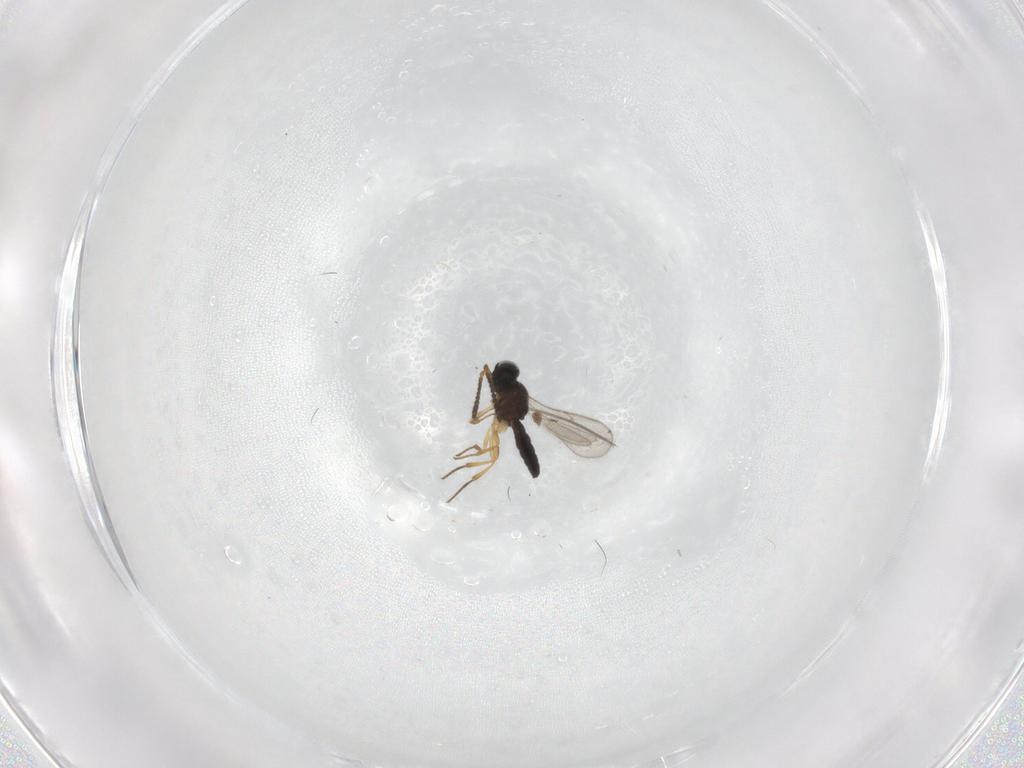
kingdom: Animalia
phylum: Arthropoda
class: Insecta
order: Hymenoptera
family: Scelionidae
